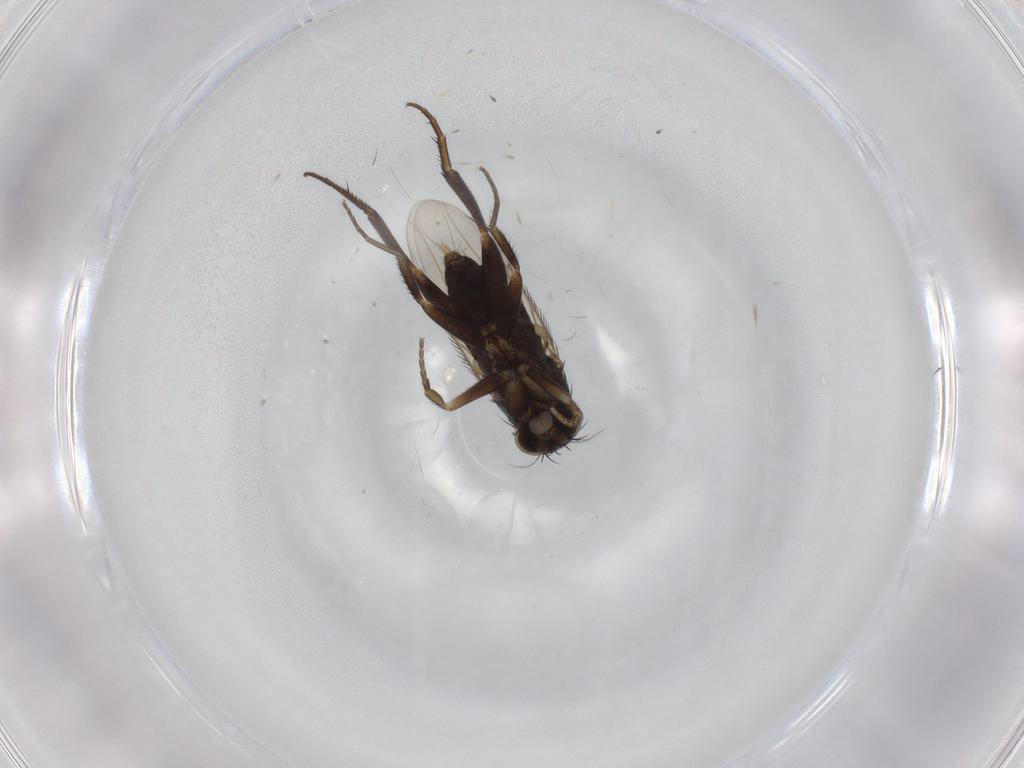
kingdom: Animalia
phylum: Arthropoda
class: Insecta
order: Diptera
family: Phoridae
